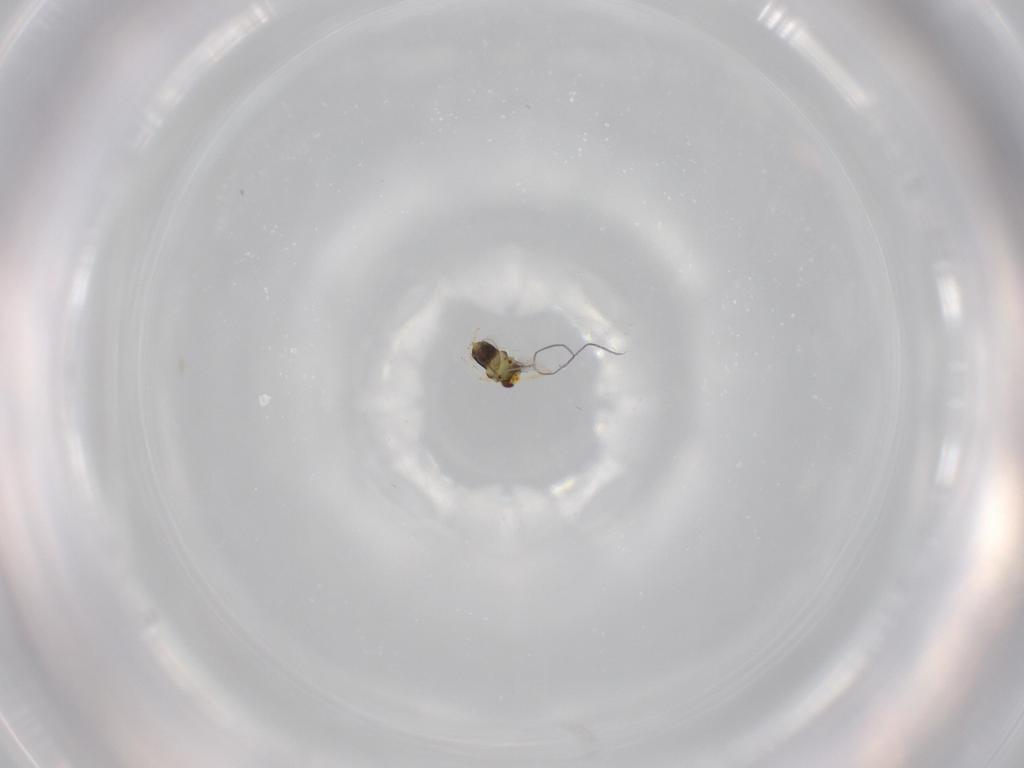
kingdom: Animalia
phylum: Arthropoda
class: Insecta
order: Hymenoptera
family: Aphelinidae
